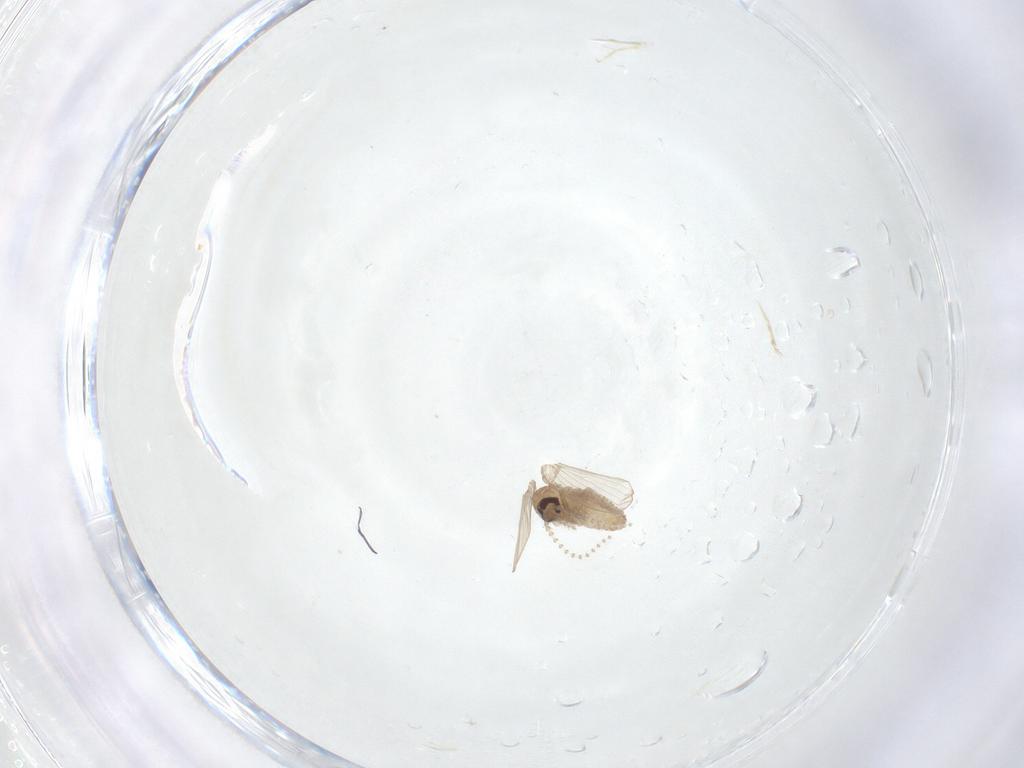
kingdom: Animalia
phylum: Arthropoda
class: Insecta
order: Diptera
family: Psychodidae
